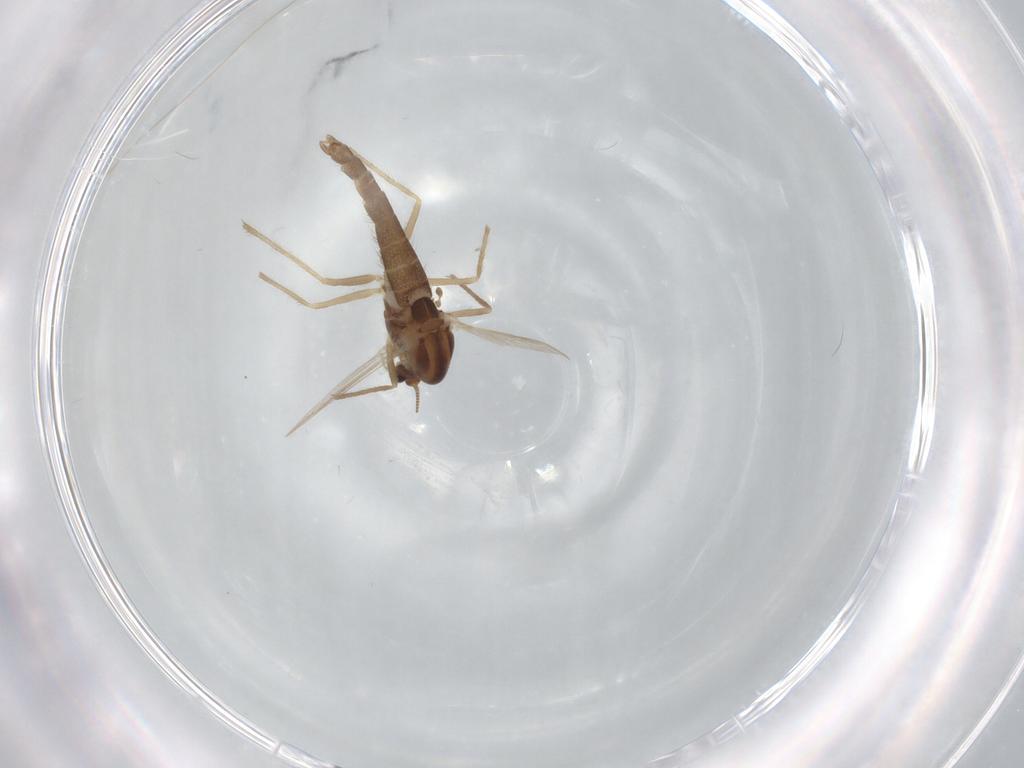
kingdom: Animalia
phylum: Arthropoda
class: Insecta
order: Diptera
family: Chironomidae
